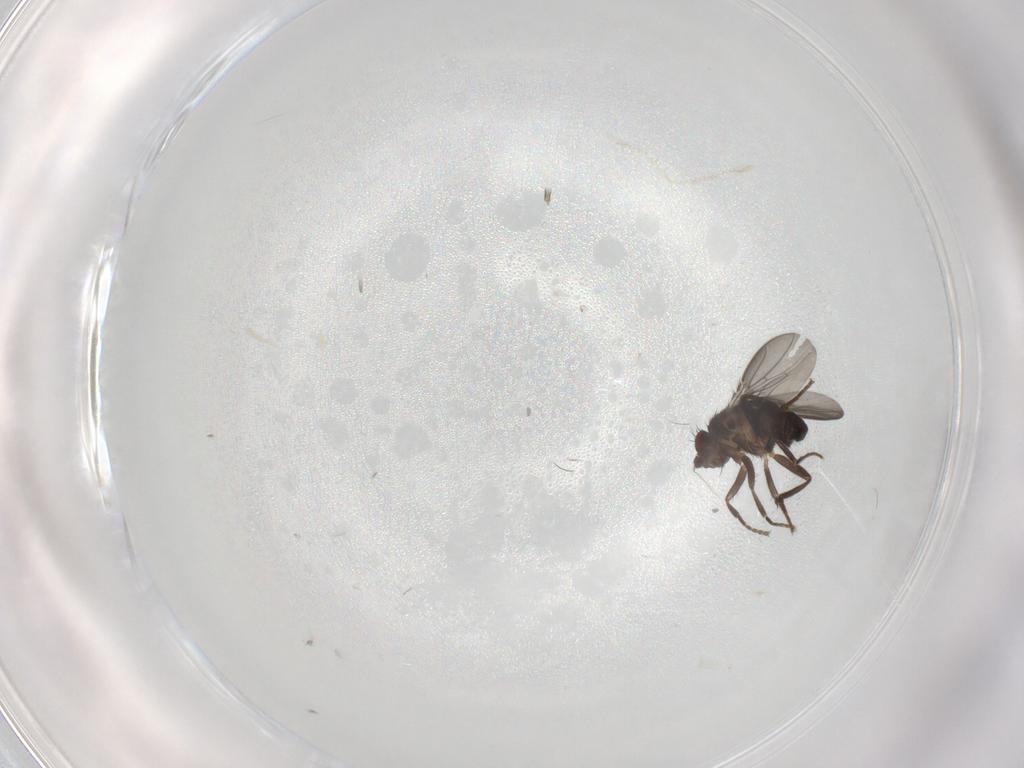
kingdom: Animalia
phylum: Arthropoda
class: Insecta
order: Diptera
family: Sphaeroceridae
